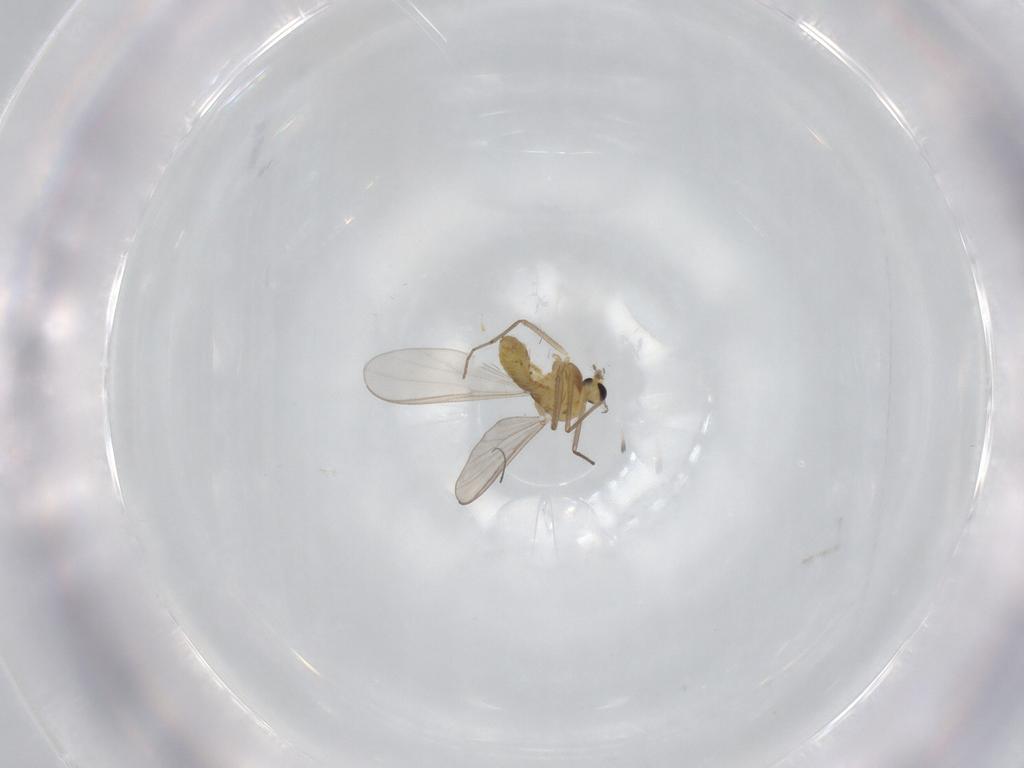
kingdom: Animalia
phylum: Arthropoda
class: Insecta
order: Diptera
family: Chironomidae
